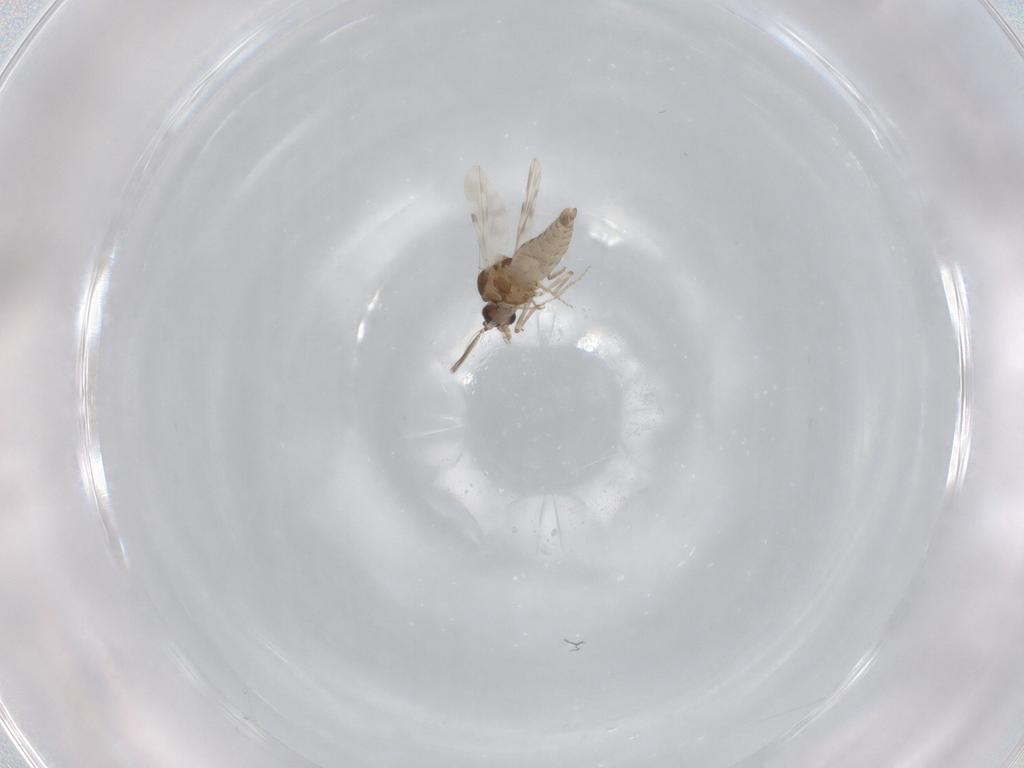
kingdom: Animalia
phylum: Arthropoda
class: Insecta
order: Diptera
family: Ceratopogonidae
